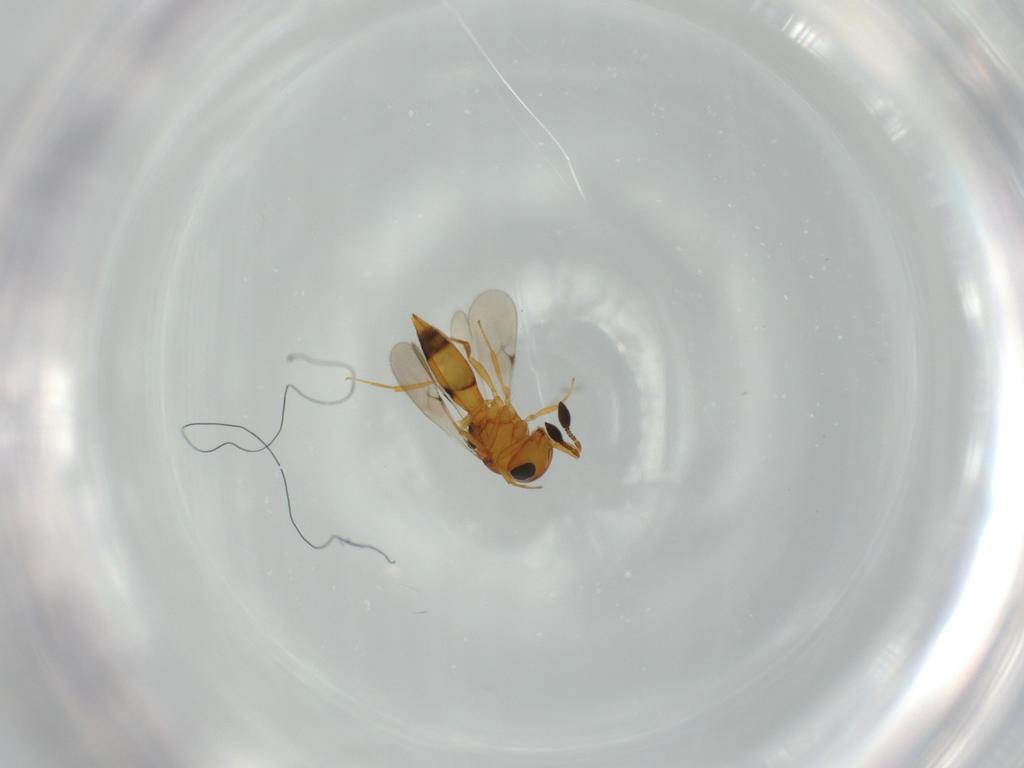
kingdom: Animalia
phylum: Arthropoda
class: Insecta
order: Hymenoptera
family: Scelionidae
